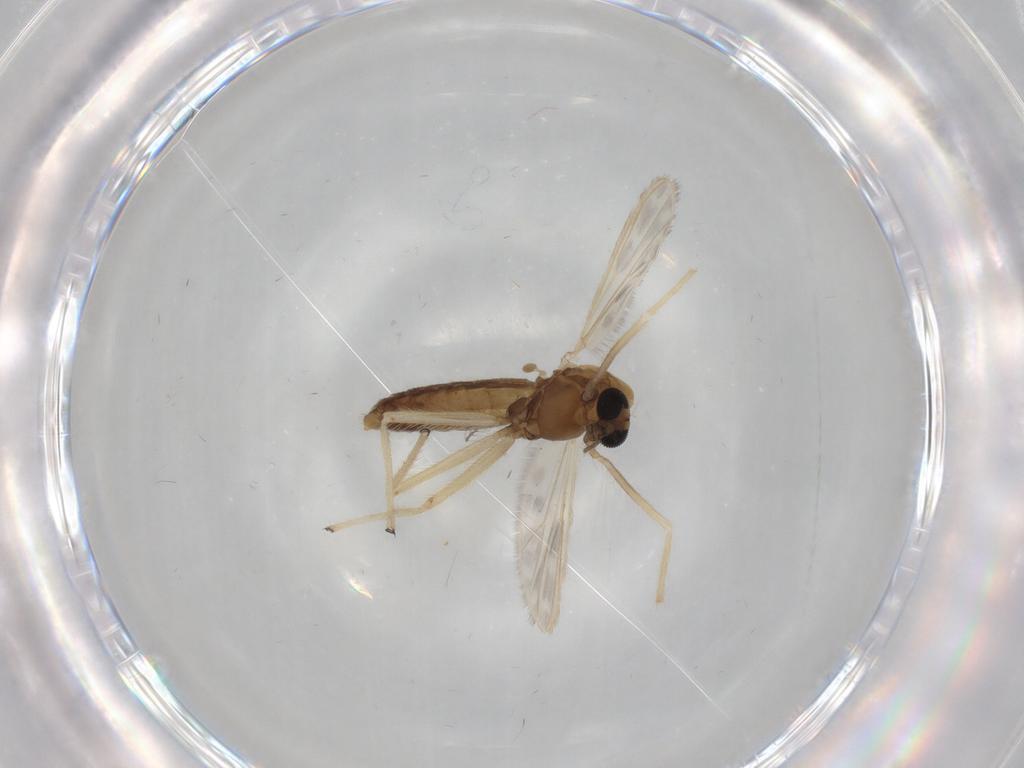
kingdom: Animalia
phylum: Arthropoda
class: Insecta
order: Diptera
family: Chironomidae
